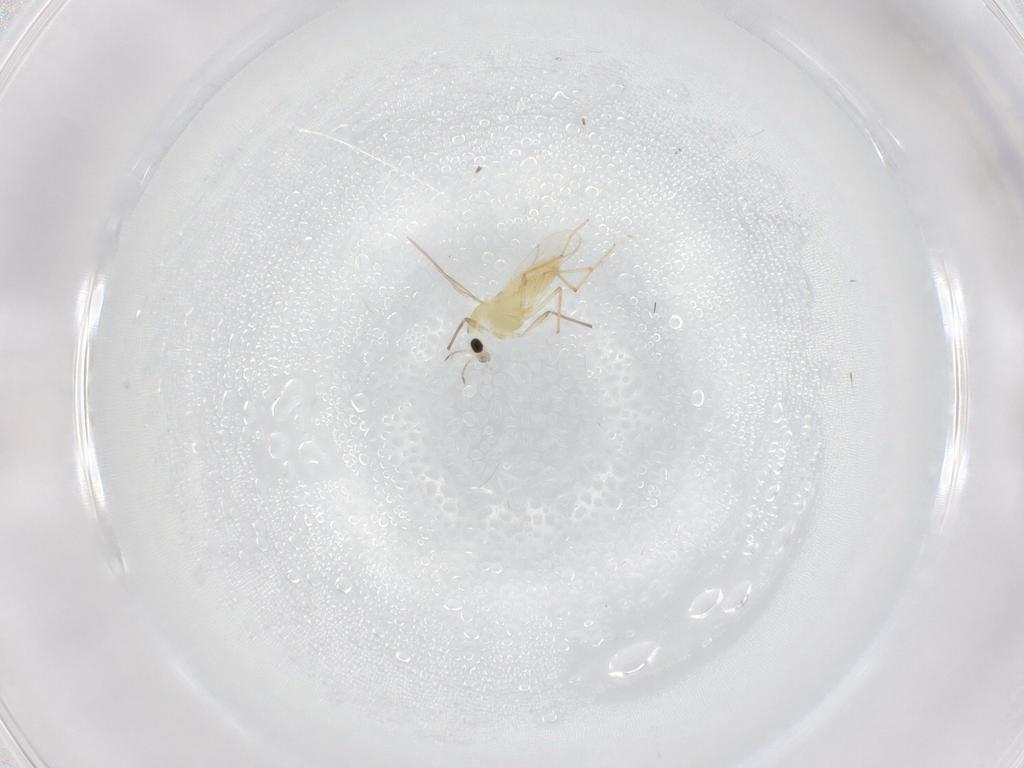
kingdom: Animalia
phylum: Arthropoda
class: Insecta
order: Diptera
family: Chironomidae
